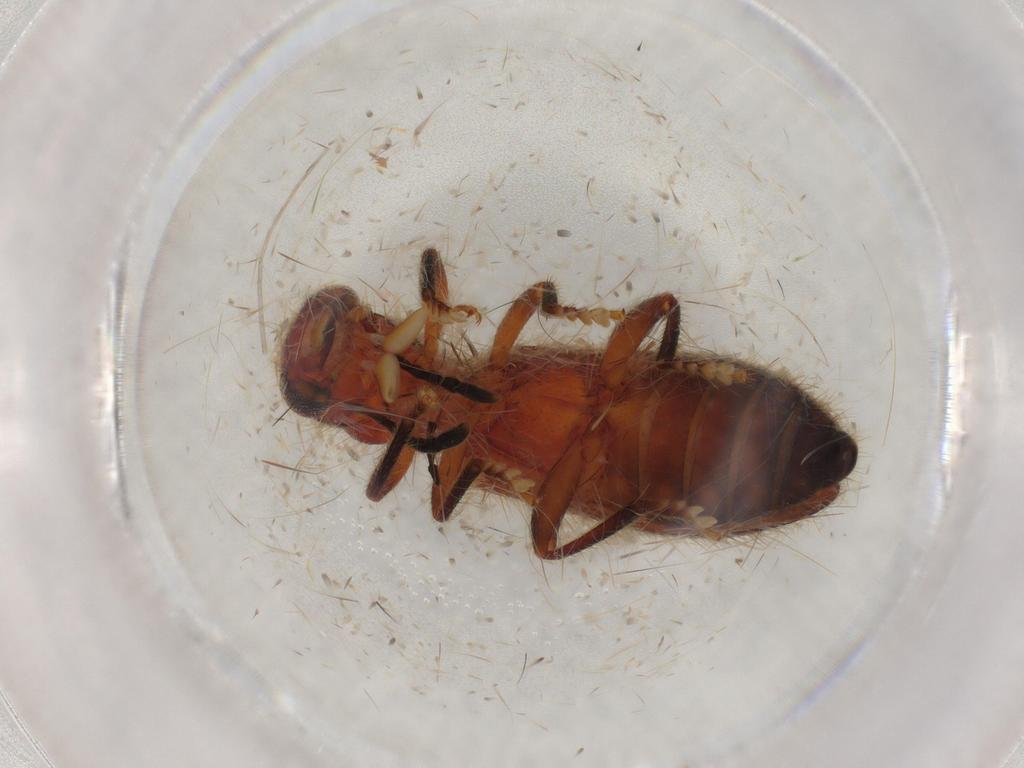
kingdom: Animalia
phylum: Arthropoda
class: Insecta
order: Coleoptera
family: Cleridae
